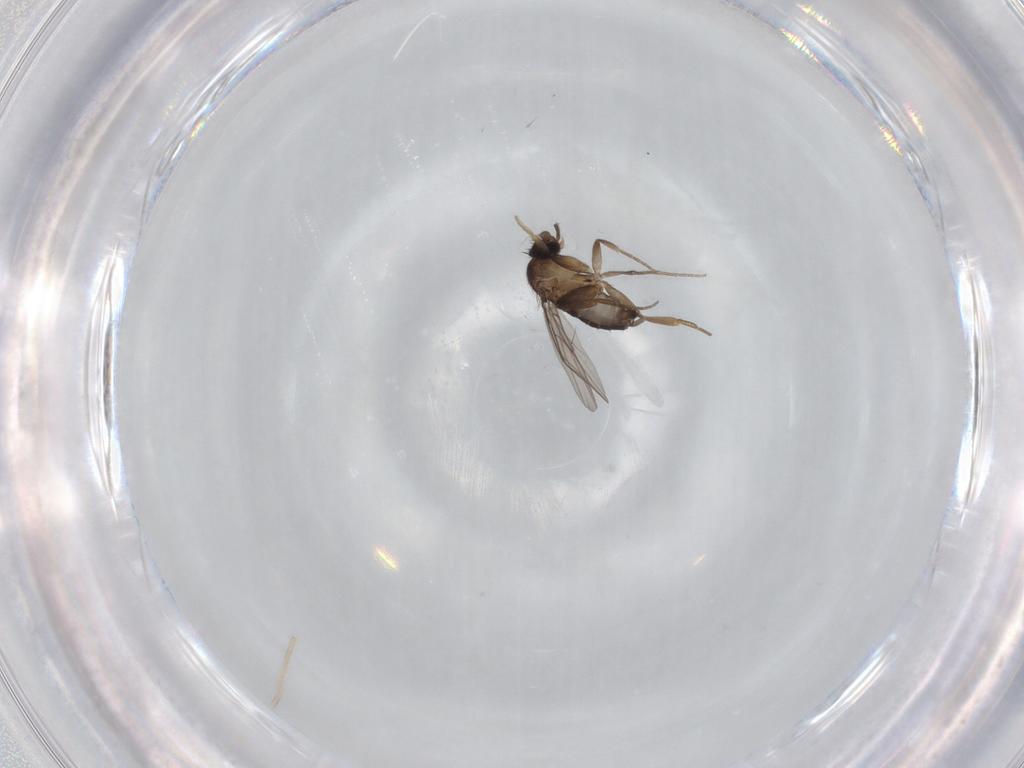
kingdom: Animalia
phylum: Arthropoda
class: Insecta
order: Diptera
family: Phoridae
